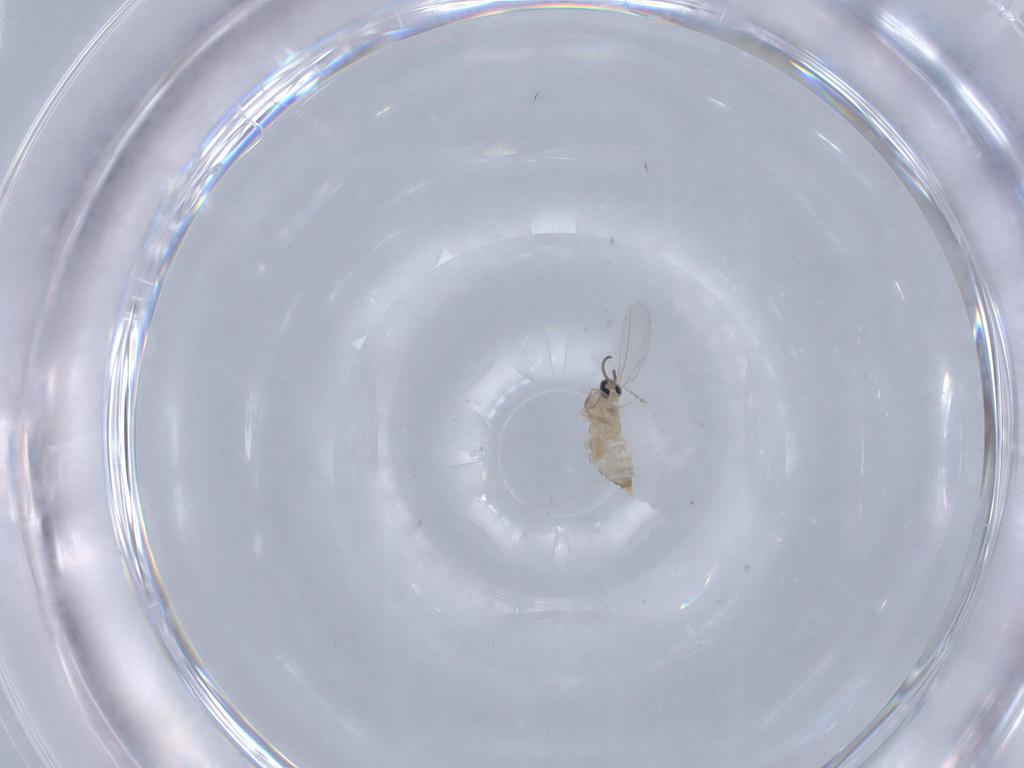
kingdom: Animalia
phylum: Arthropoda
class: Insecta
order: Diptera
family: Cecidomyiidae
